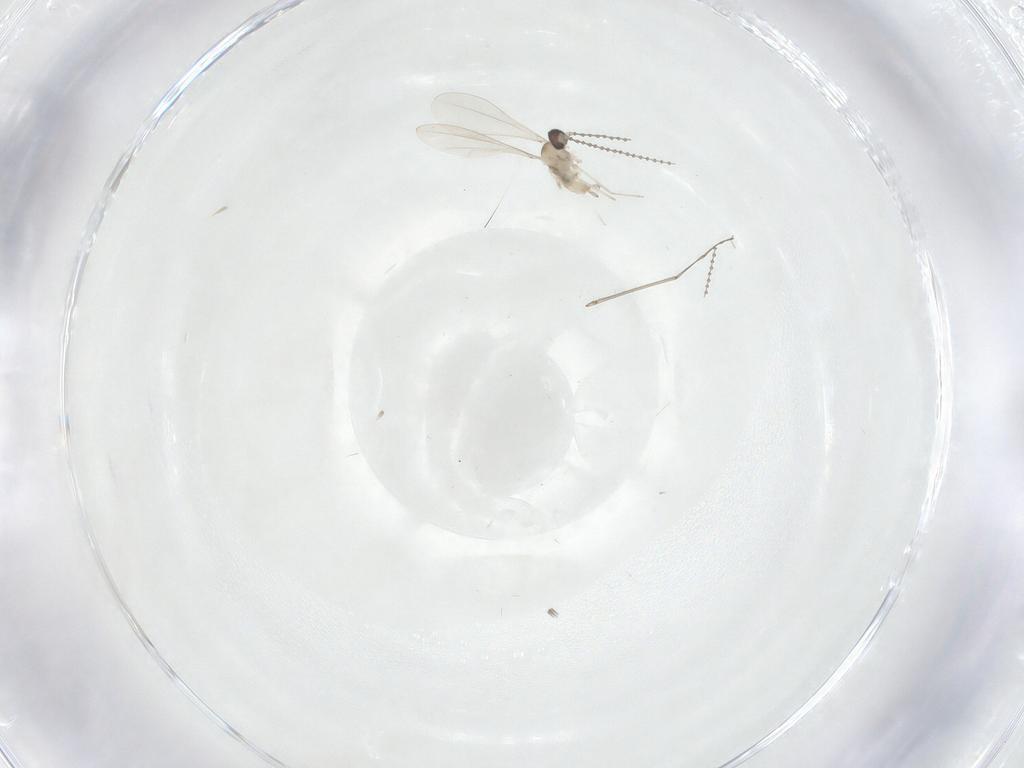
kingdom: Animalia
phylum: Arthropoda
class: Insecta
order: Diptera
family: Cecidomyiidae
